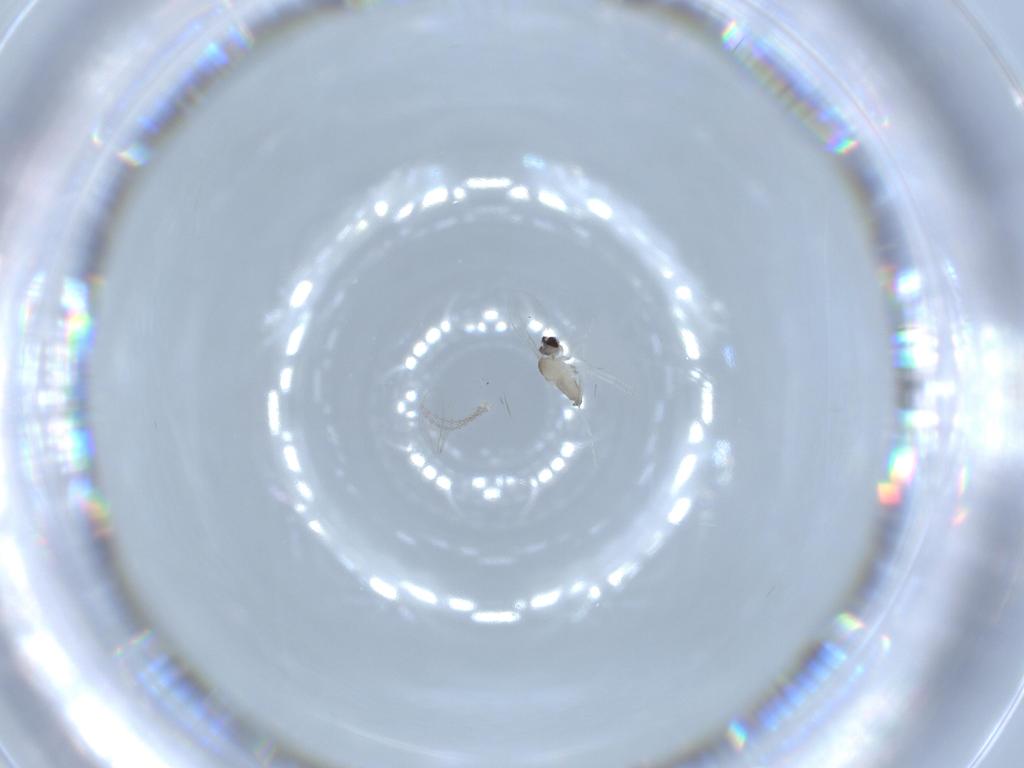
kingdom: Animalia
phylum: Arthropoda
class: Insecta
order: Diptera
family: Cecidomyiidae
